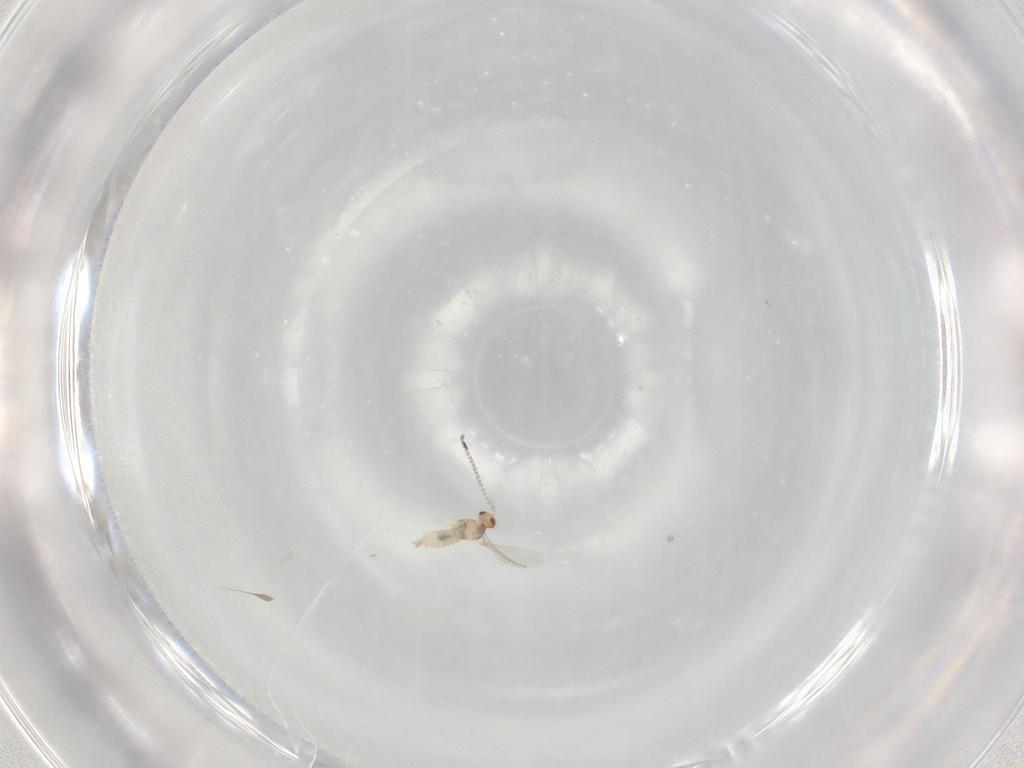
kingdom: Animalia
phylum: Arthropoda
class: Insecta
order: Diptera
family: Cecidomyiidae
